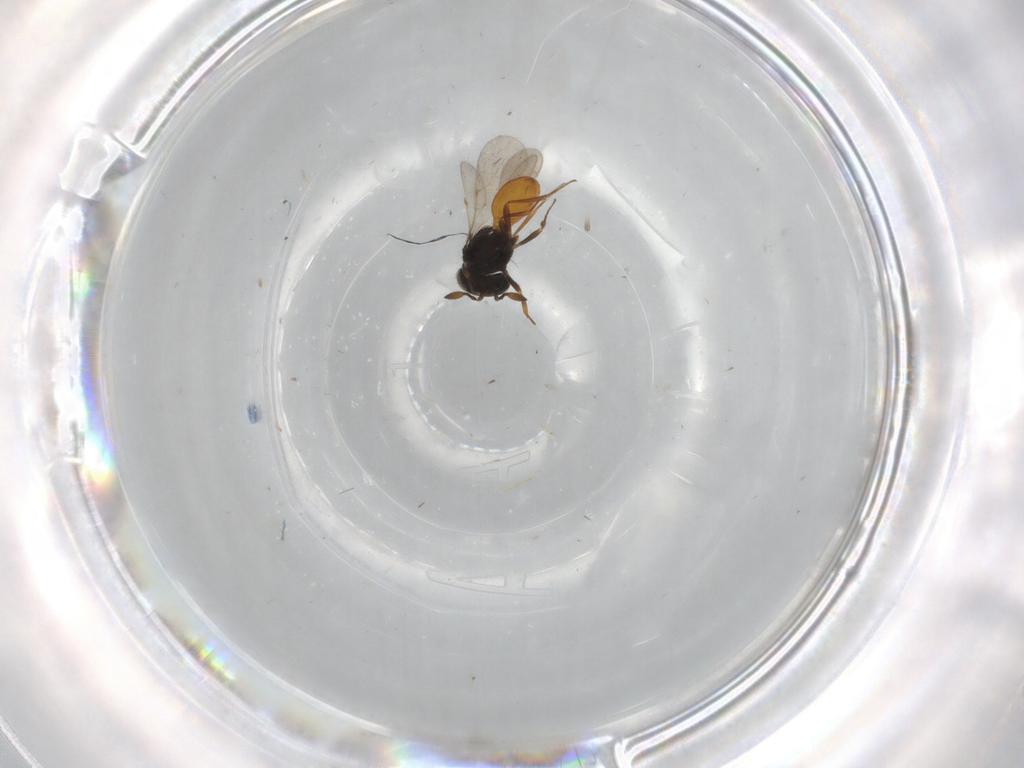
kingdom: Animalia
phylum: Arthropoda
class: Insecta
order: Hymenoptera
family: Scelionidae
